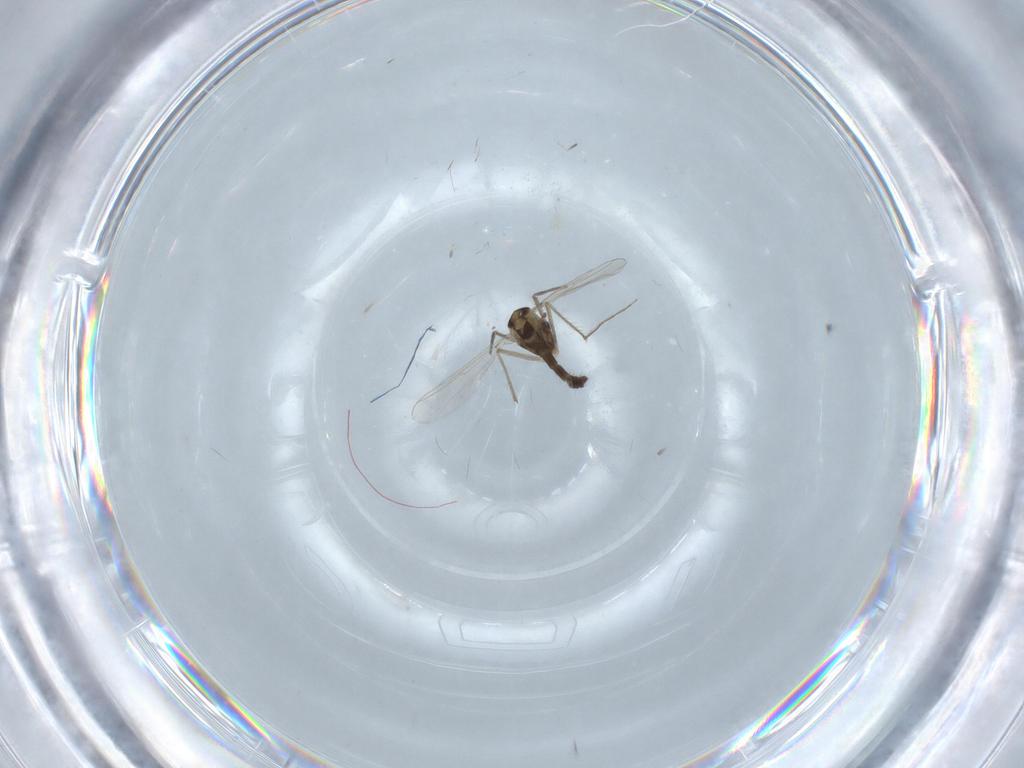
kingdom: Animalia
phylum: Arthropoda
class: Insecta
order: Diptera
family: Chironomidae
